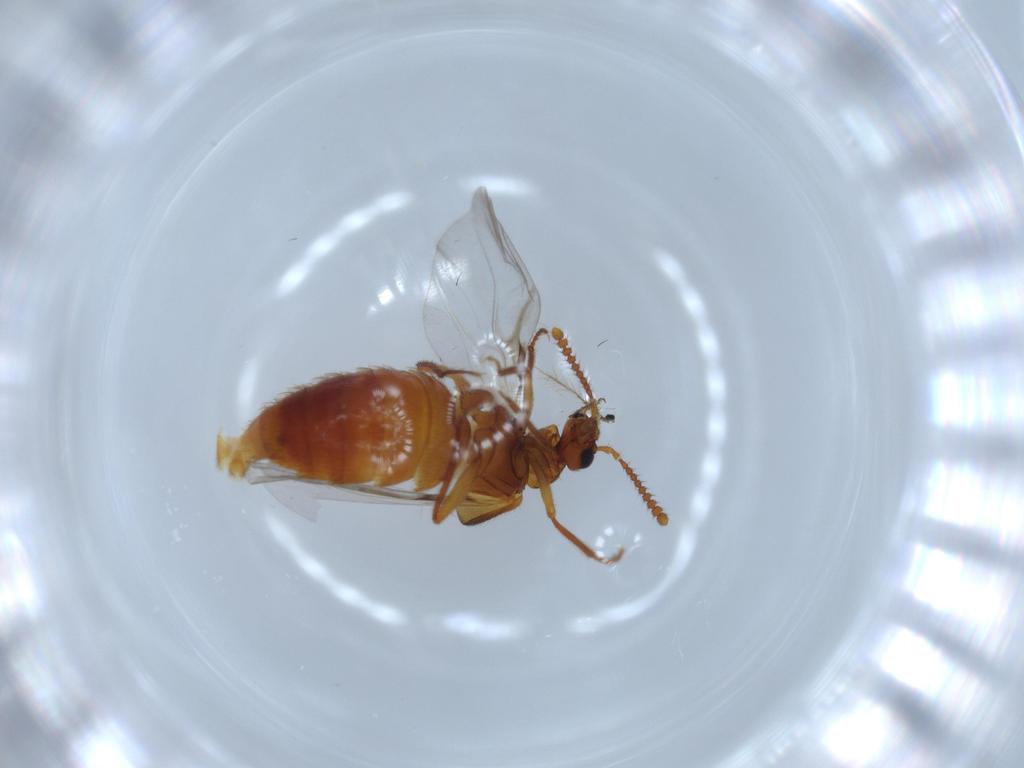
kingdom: Animalia
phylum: Arthropoda
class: Insecta
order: Coleoptera
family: Staphylinidae
